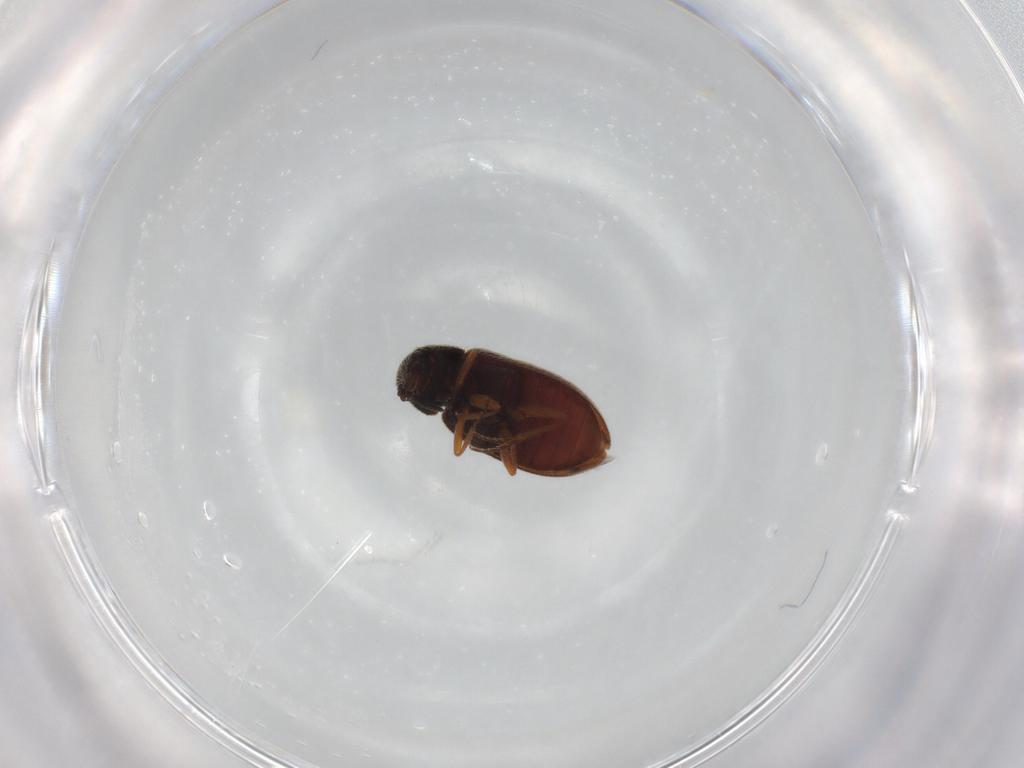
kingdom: Animalia
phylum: Arthropoda
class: Insecta
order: Coleoptera
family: Rhadalidae
